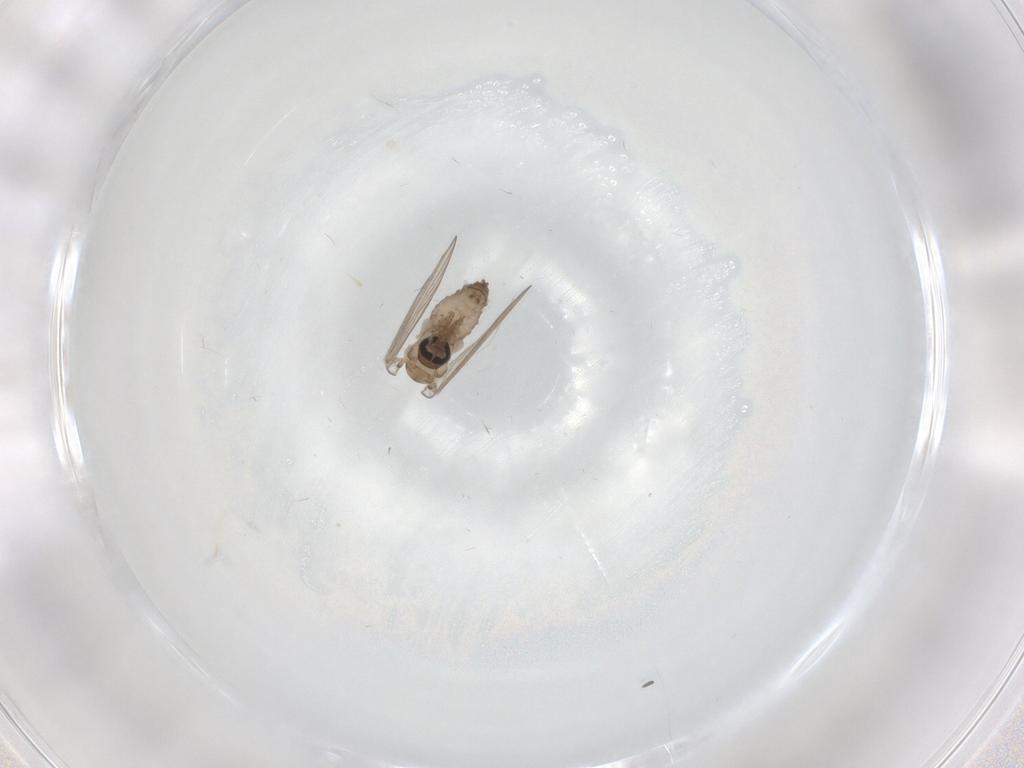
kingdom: Animalia
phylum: Arthropoda
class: Insecta
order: Diptera
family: Psychodidae
